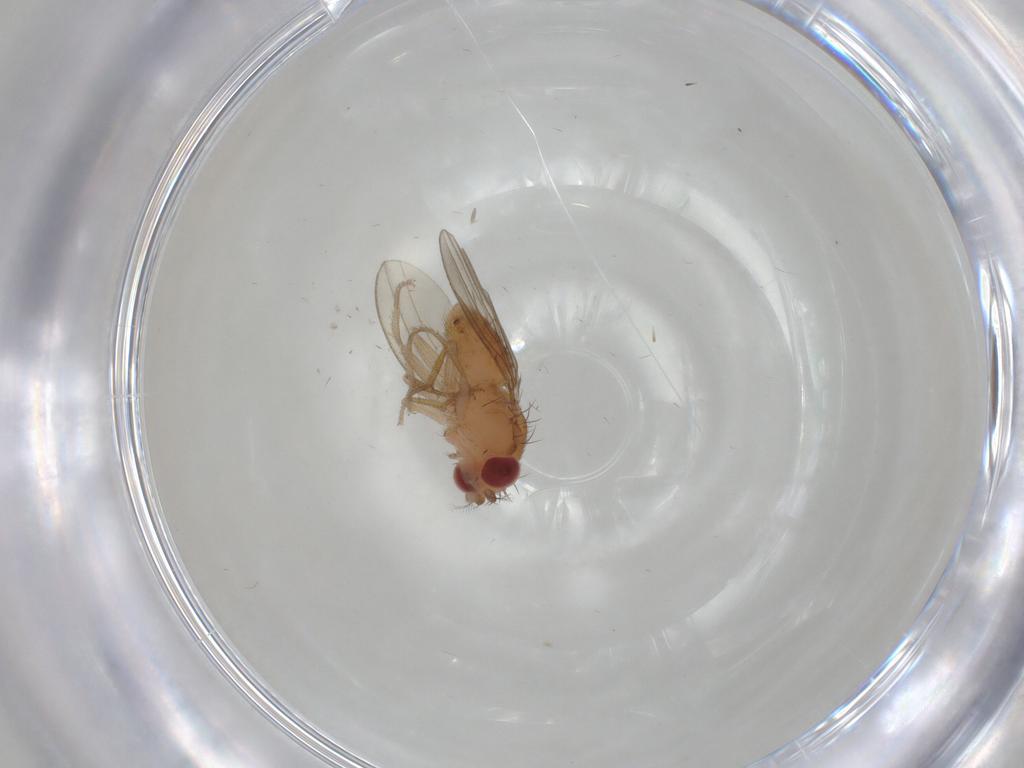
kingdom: Animalia
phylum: Arthropoda
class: Insecta
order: Diptera
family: Drosophilidae
